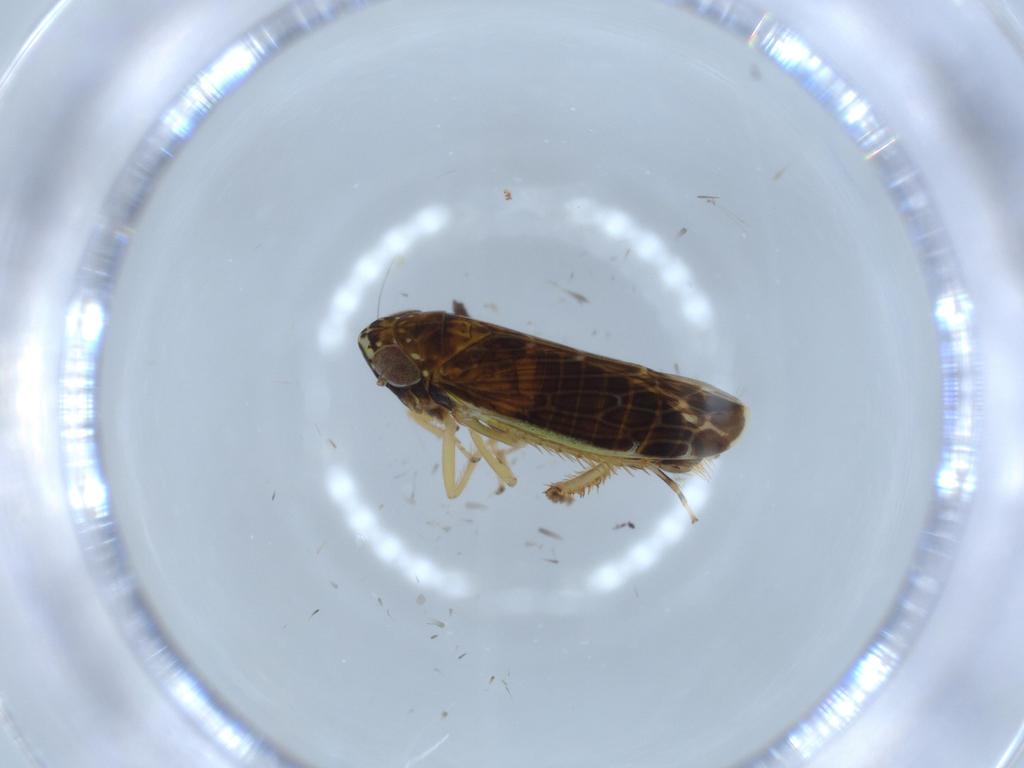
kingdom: Animalia
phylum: Arthropoda
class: Insecta
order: Hemiptera
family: Cicadellidae
